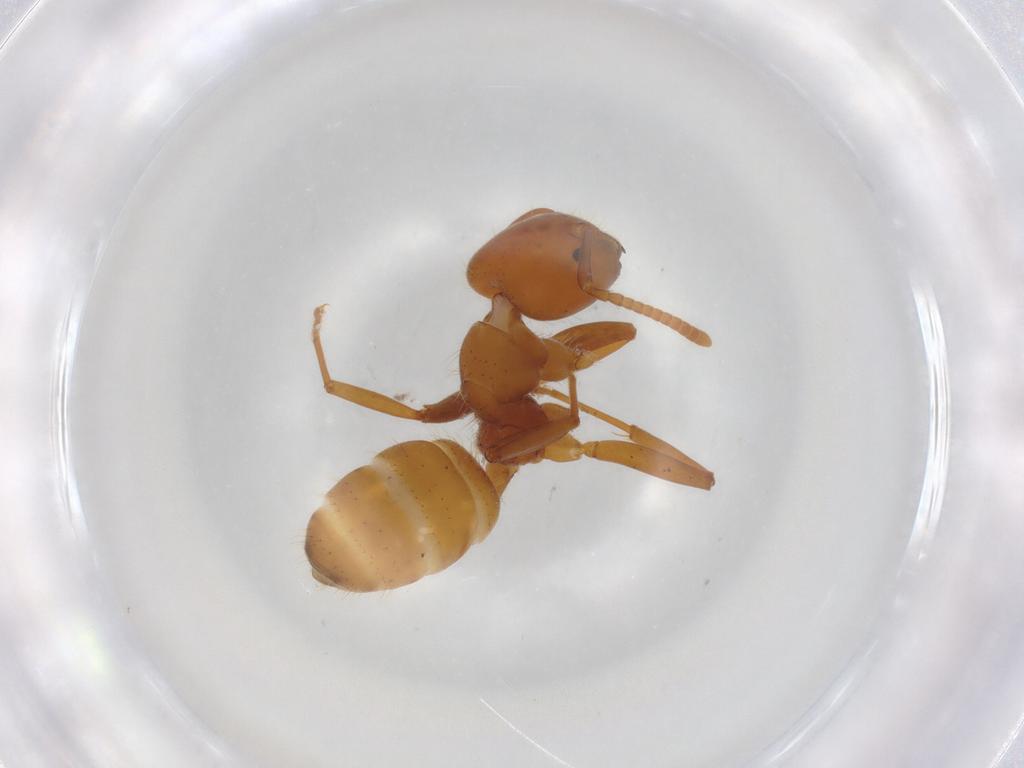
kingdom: Animalia
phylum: Arthropoda
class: Insecta
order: Hymenoptera
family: Formicidae
